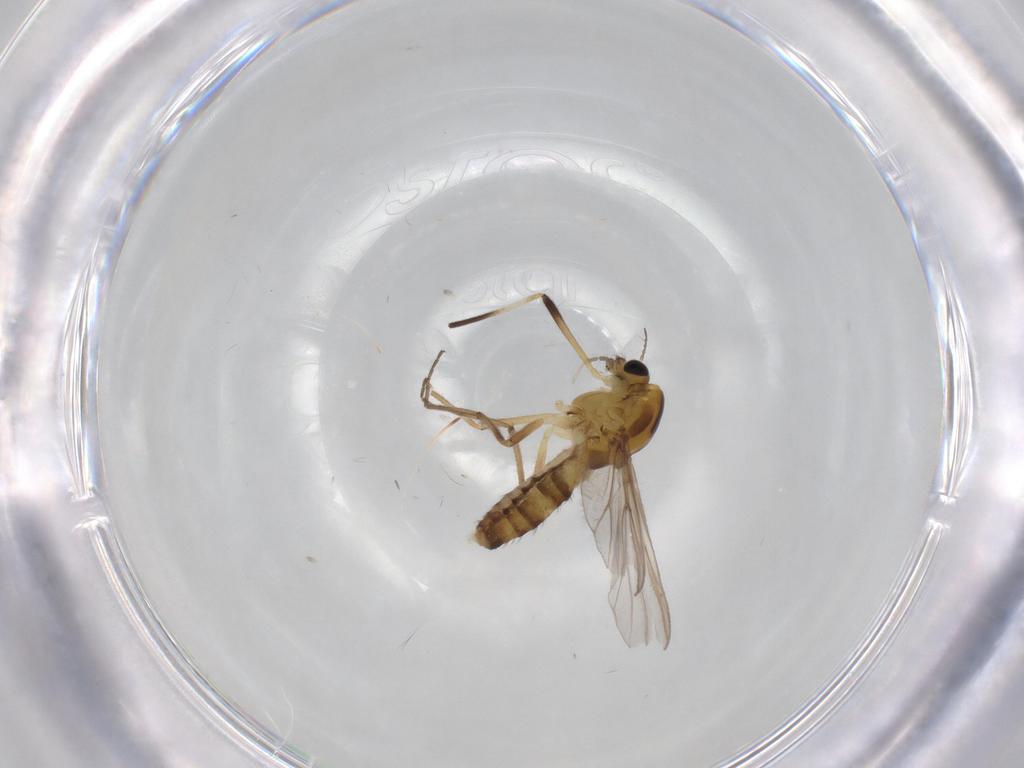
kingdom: Animalia
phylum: Arthropoda
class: Insecta
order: Diptera
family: Chironomidae
